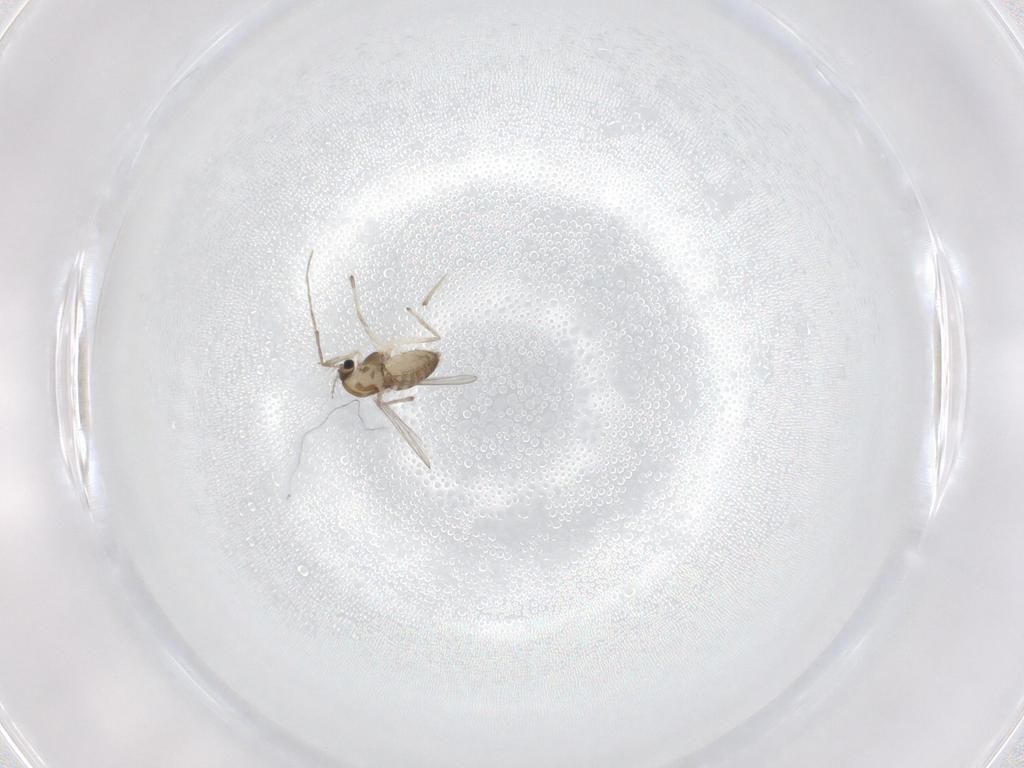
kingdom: Animalia
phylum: Arthropoda
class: Insecta
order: Diptera
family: Chironomidae
